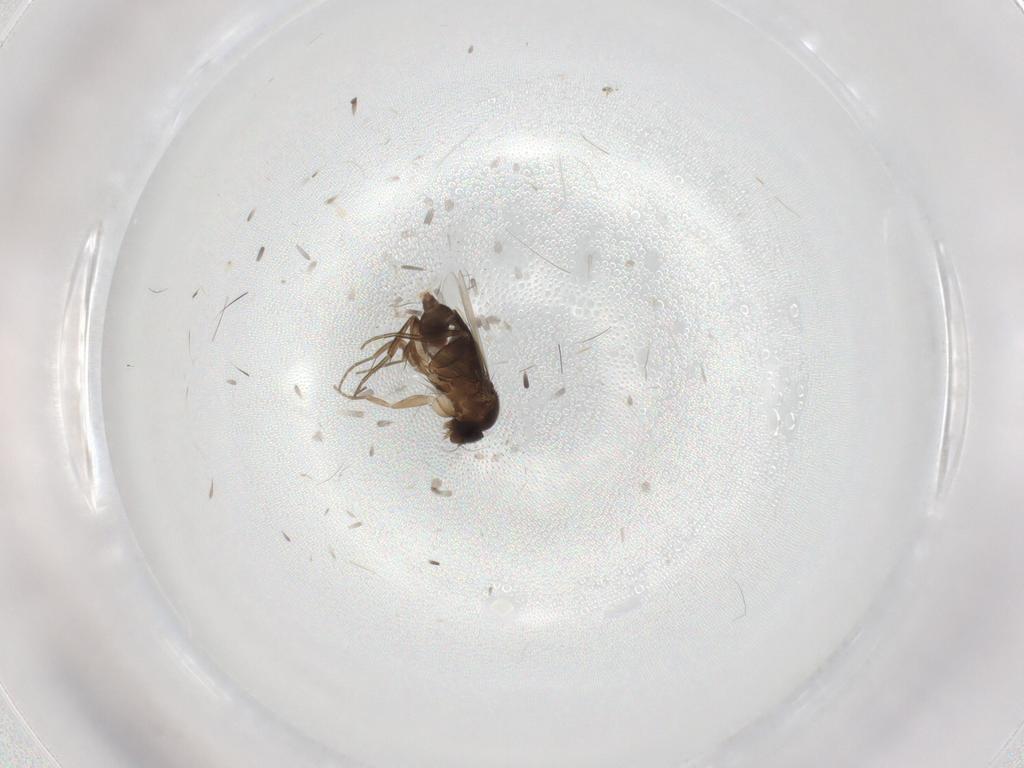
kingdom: Animalia
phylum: Arthropoda
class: Insecta
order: Diptera
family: Phoridae
